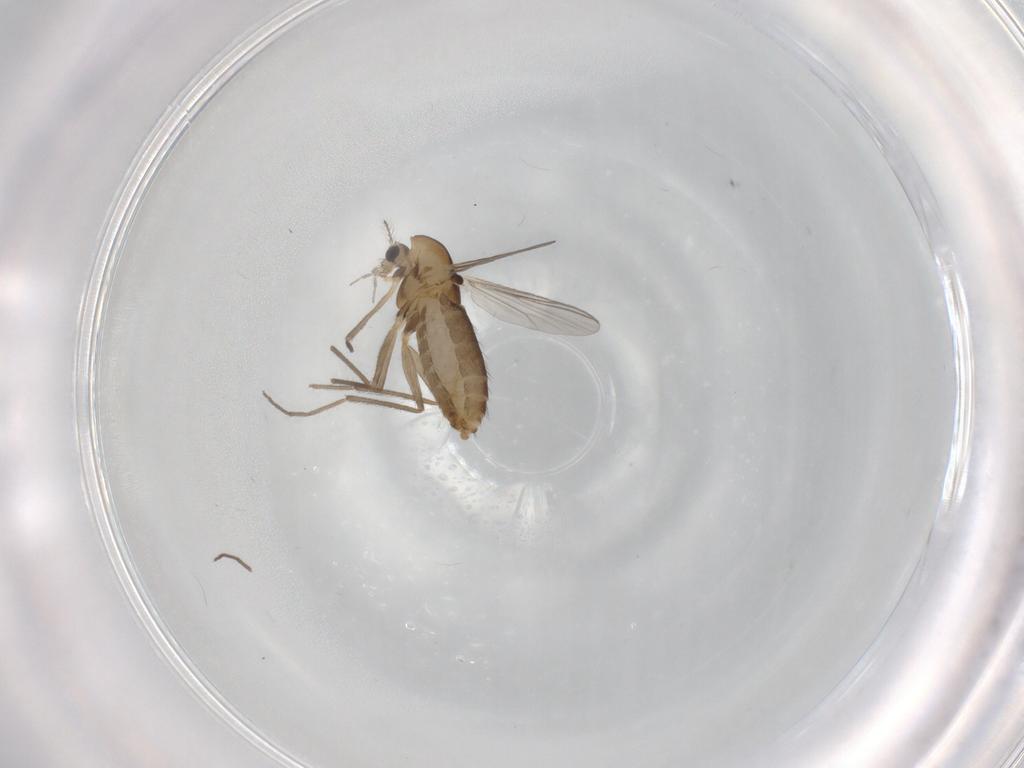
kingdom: Animalia
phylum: Arthropoda
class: Insecta
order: Diptera
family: Chironomidae
